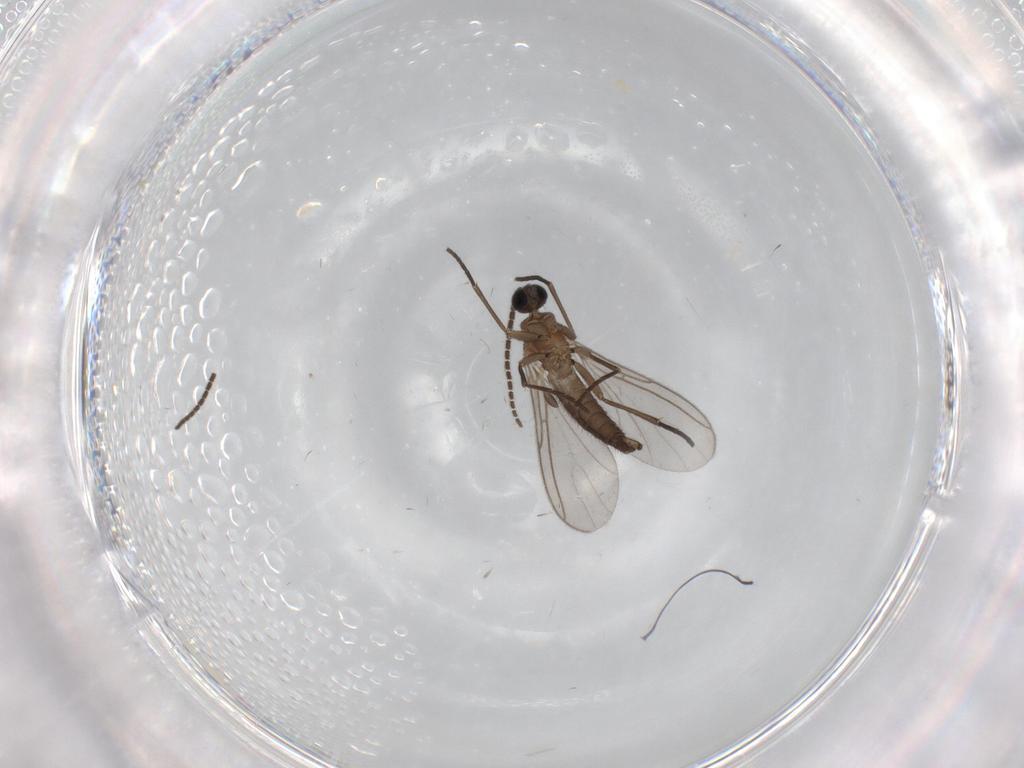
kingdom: Animalia
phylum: Arthropoda
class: Insecta
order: Diptera
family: Sciaridae
